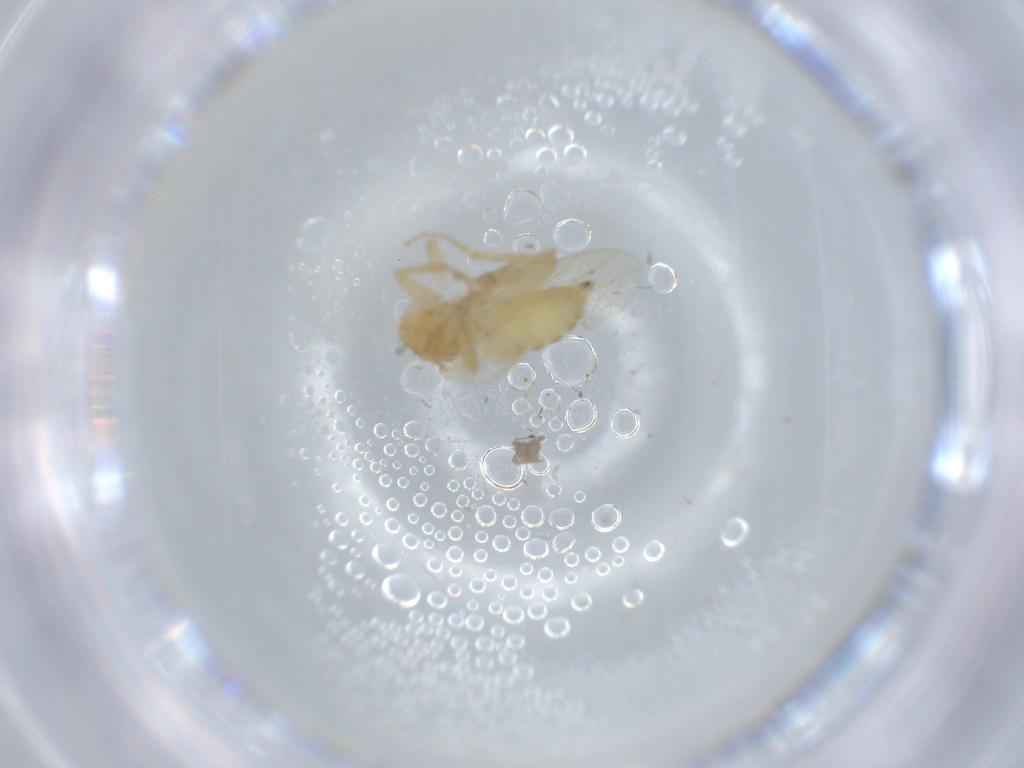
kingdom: Animalia
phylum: Arthropoda
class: Insecta
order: Diptera
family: Hybotidae
